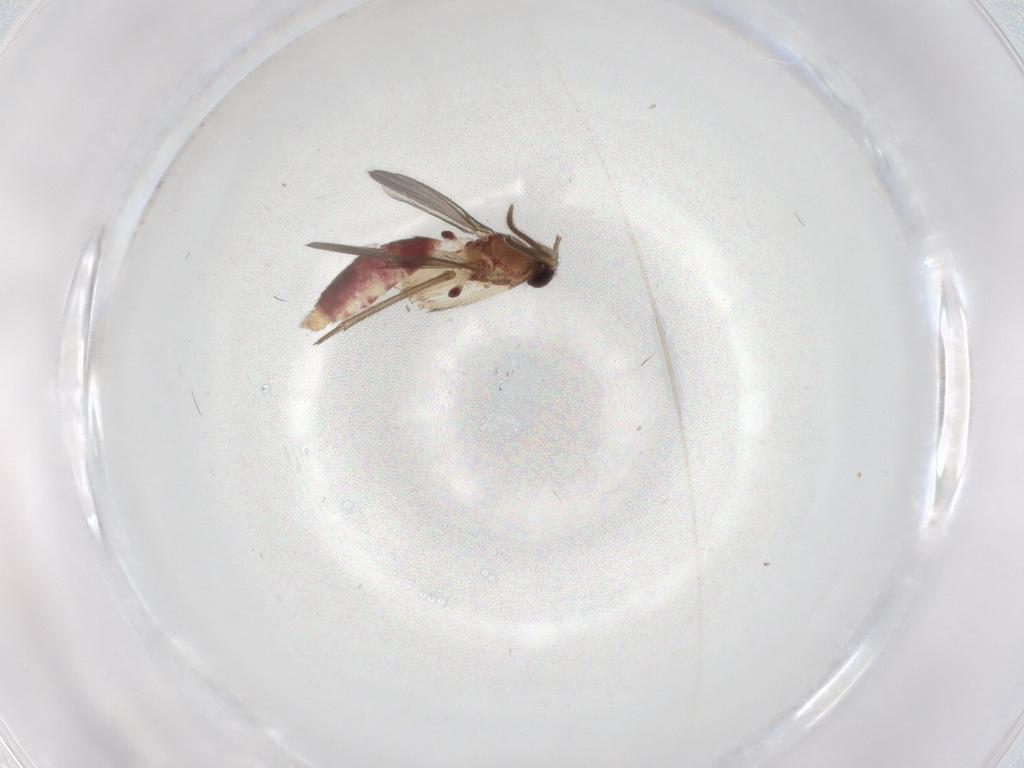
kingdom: Animalia
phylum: Arthropoda
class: Insecta
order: Diptera
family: Mycetophilidae
